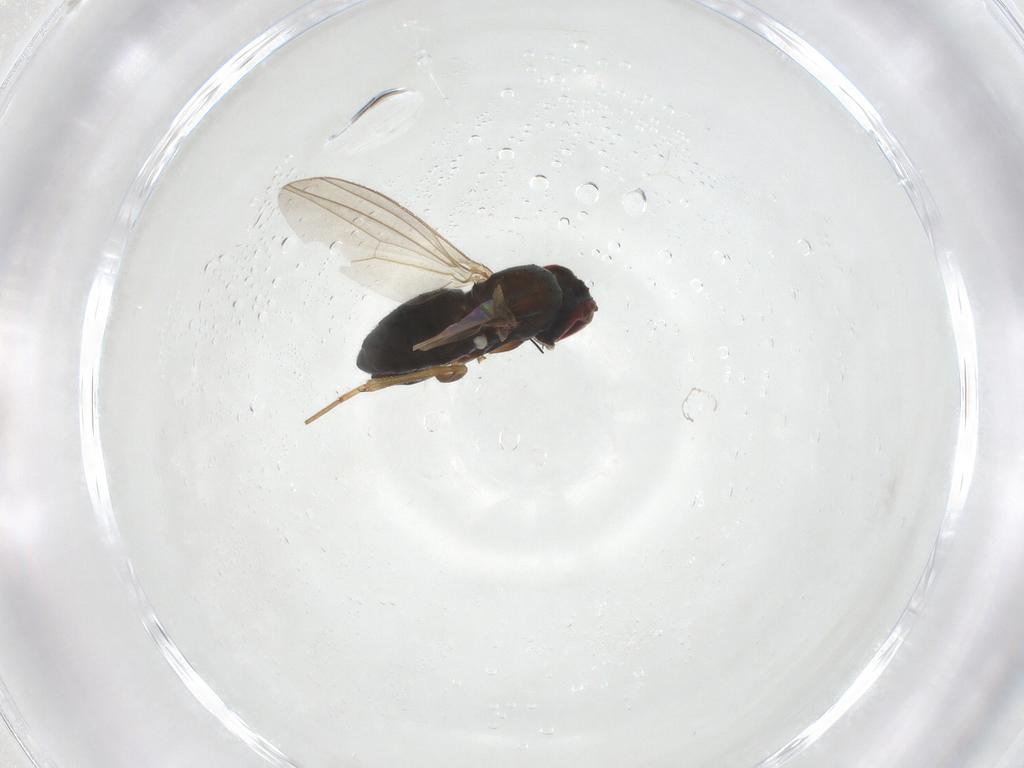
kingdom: Animalia
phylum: Arthropoda
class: Insecta
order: Diptera
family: Dolichopodidae
